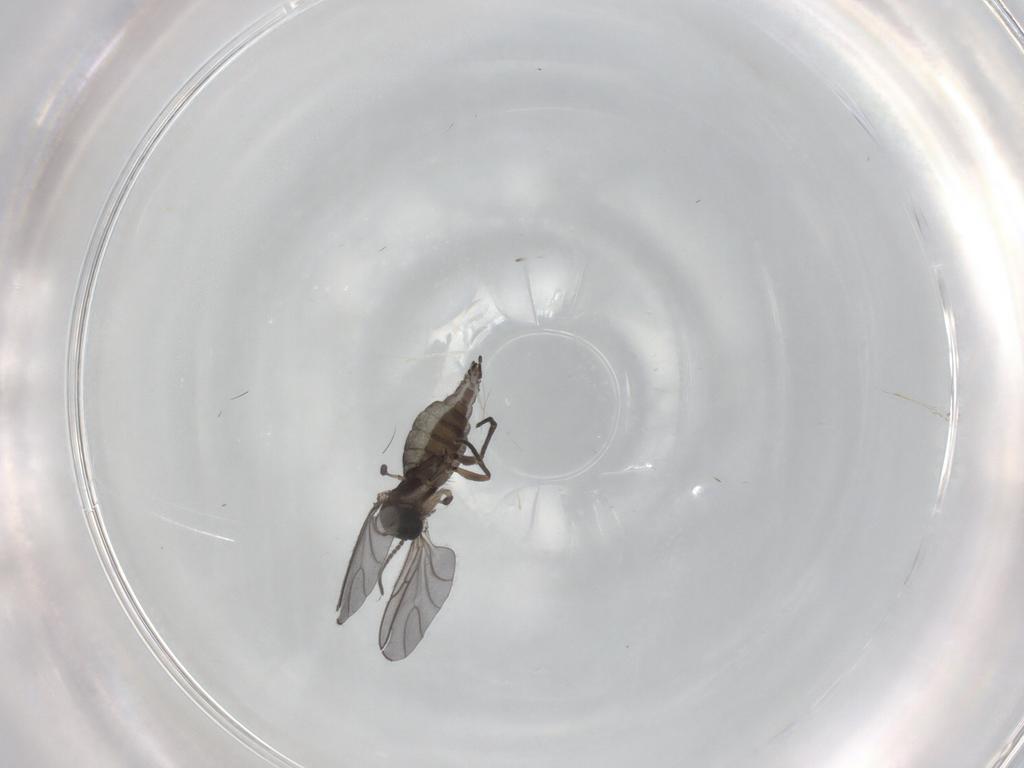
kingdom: Animalia
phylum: Arthropoda
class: Insecta
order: Diptera
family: Sciaridae
